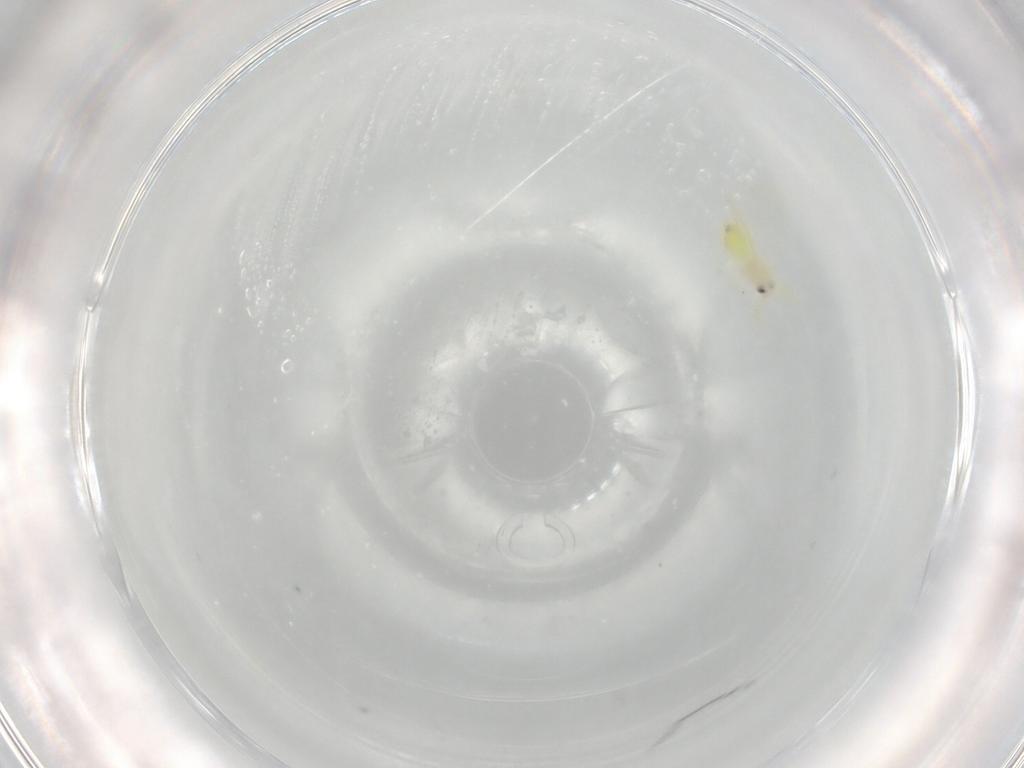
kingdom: Animalia
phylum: Arthropoda
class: Insecta
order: Hemiptera
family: Aleyrodidae
